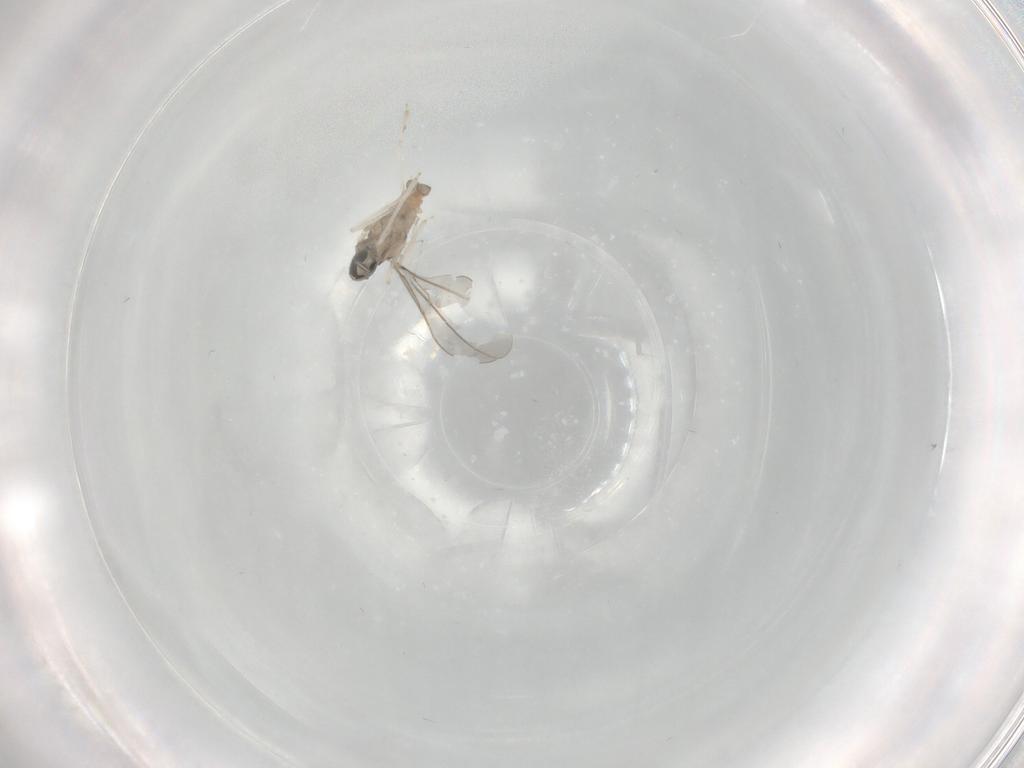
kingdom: Animalia
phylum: Arthropoda
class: Insecta
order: Diptera
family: Cecidomyiidae
